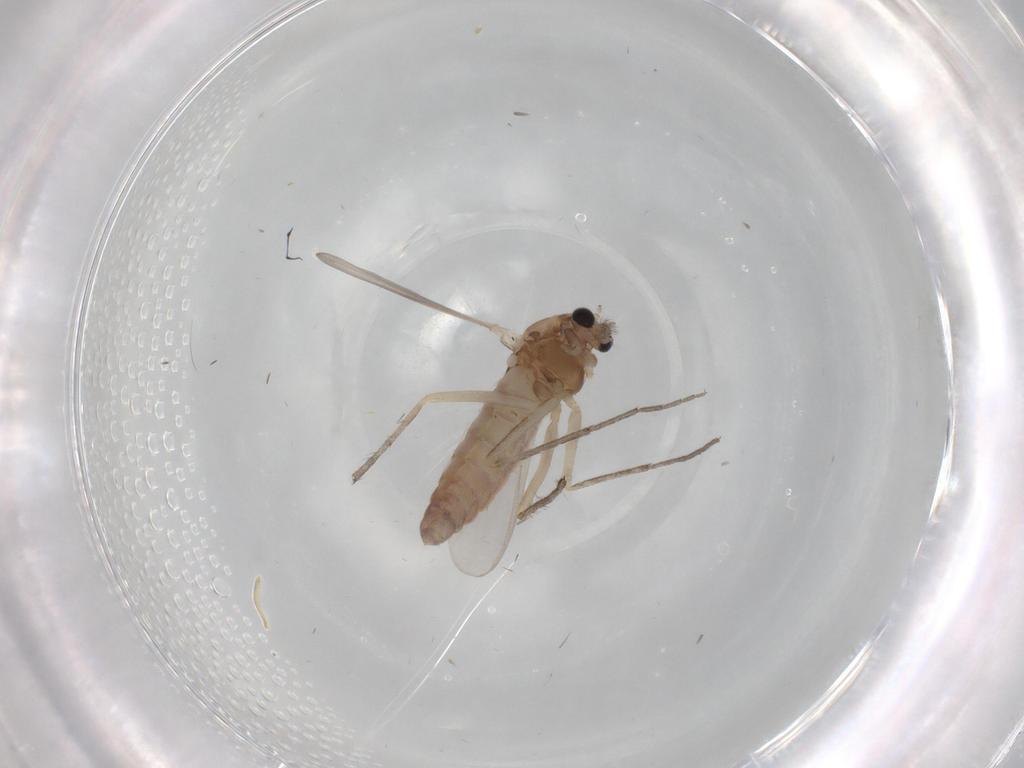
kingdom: Animalia
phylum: Arthropoda
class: Insecta
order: Diptera
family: Chironomidae
